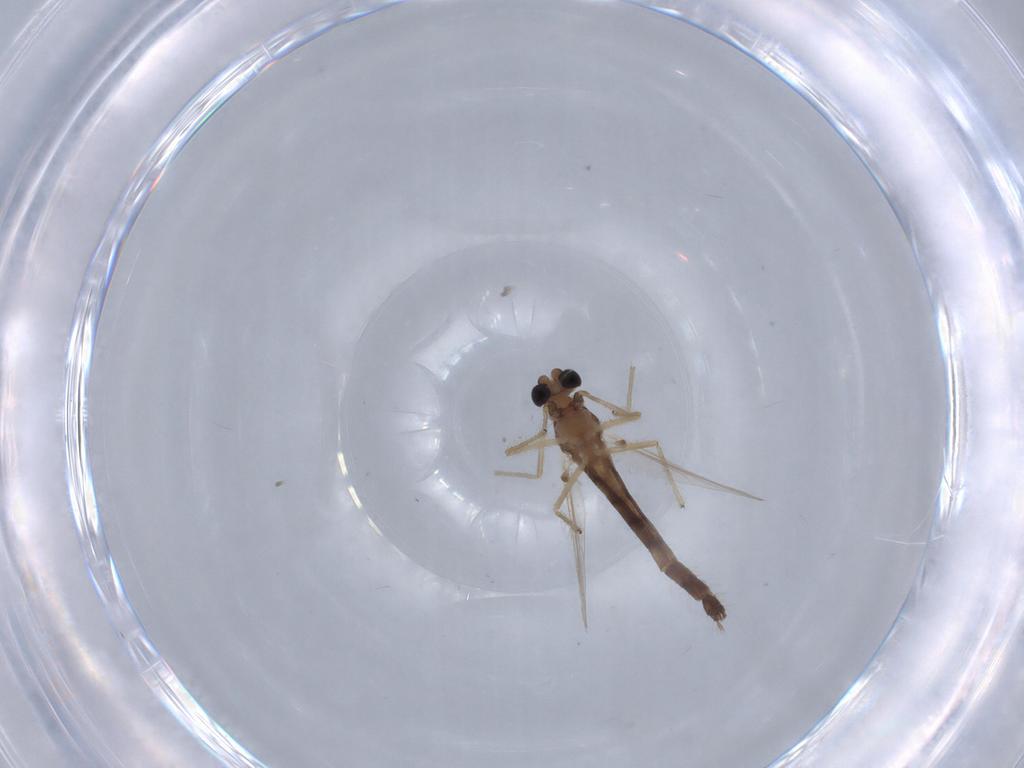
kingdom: Animalia
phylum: Arthropoda
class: Insecta
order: Diptera
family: Chironomidae
